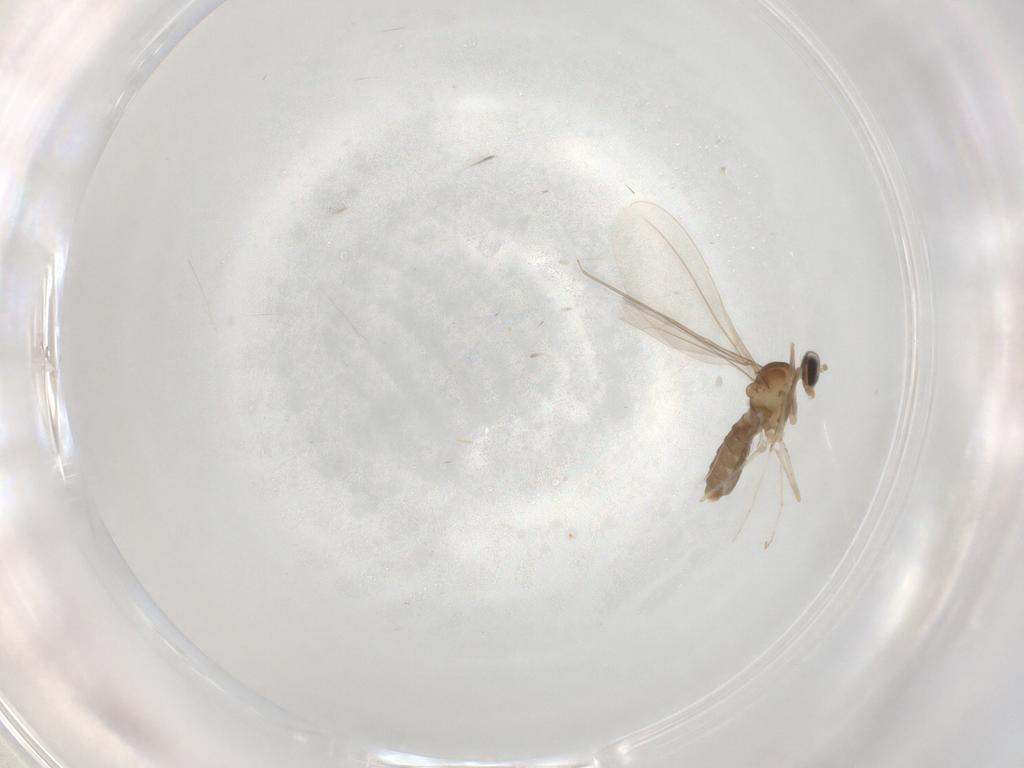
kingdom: Animalia
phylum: Arthropoda
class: Insecta
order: Diptera
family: Cecidomyiidae
